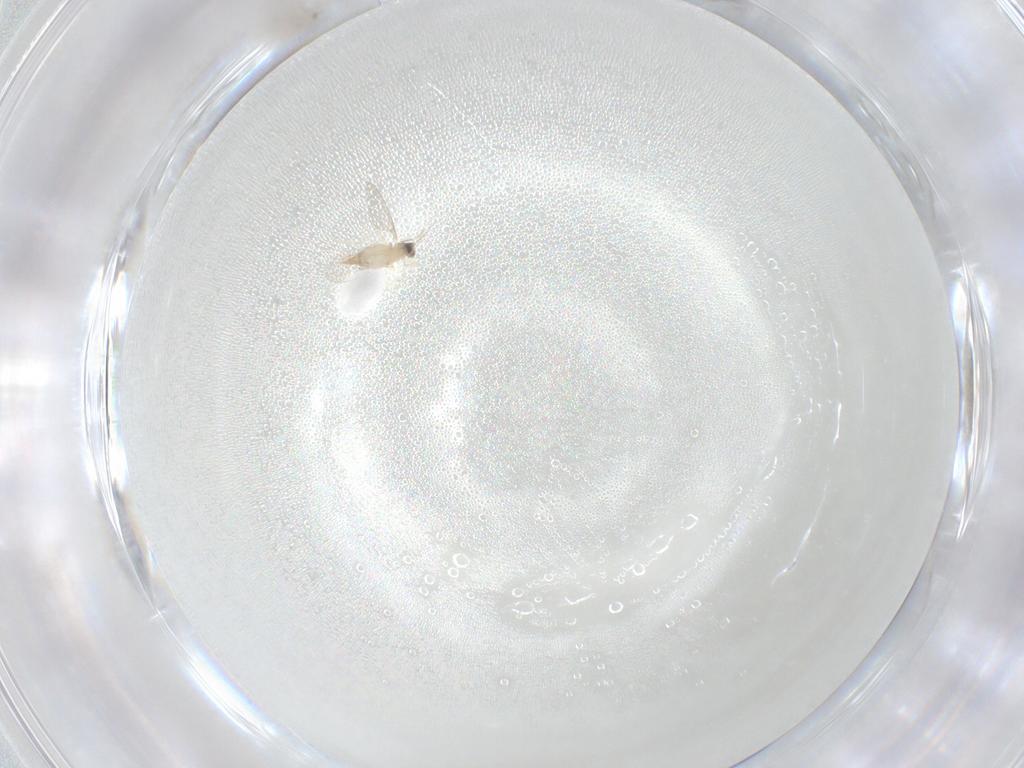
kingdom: Animalia
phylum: Arthropoda
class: Insecta
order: Diptera
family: Cecidomyiidae
